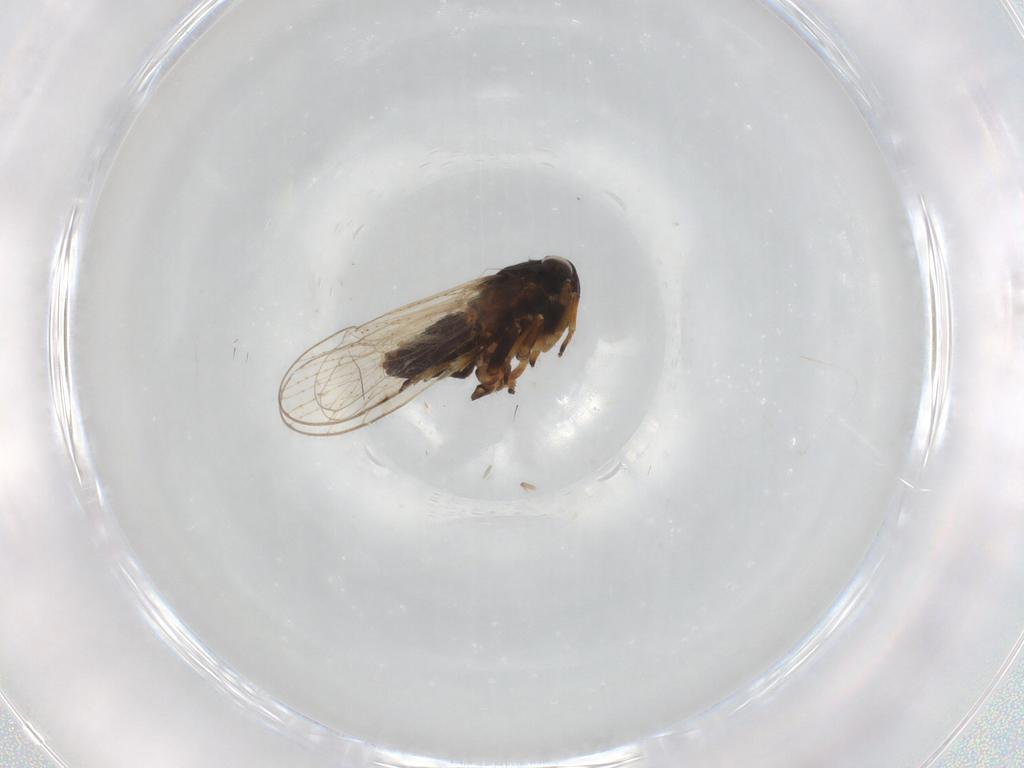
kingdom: Animalia
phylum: Arthropoda
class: Insecta
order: Hemiptera
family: Delphacidae
